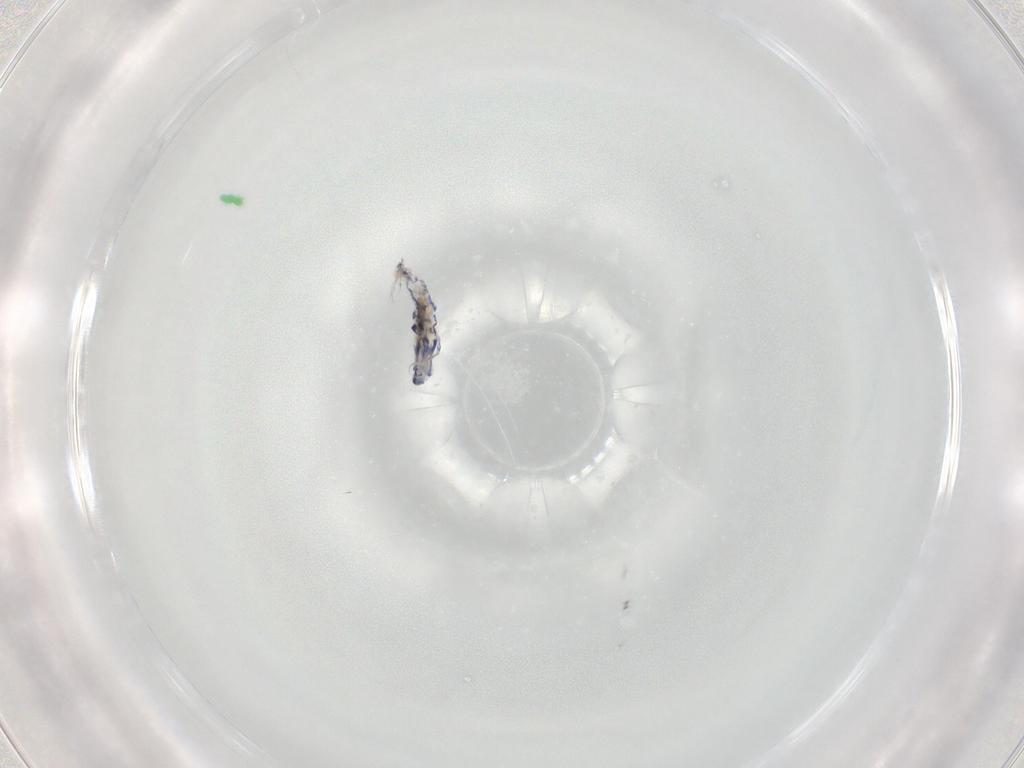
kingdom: Animalia
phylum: Arthropoda
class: Collembola
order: Entomobryomorpha
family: Entomobryidae
